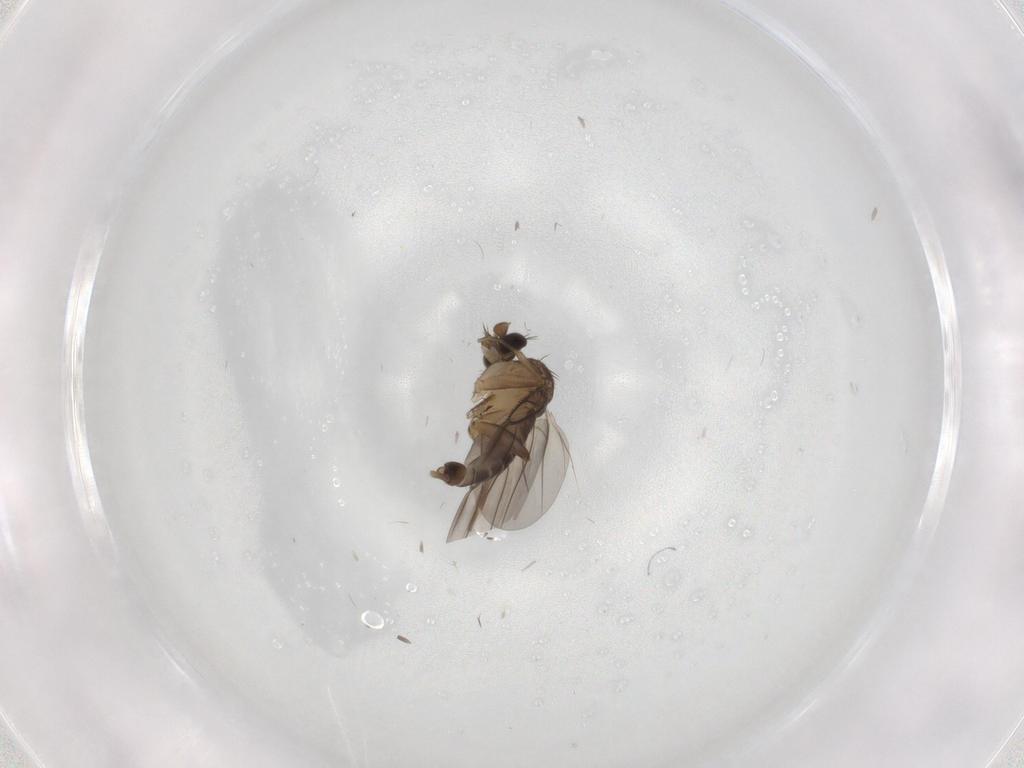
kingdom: Animalia
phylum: Arthropoda
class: Insecta
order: Diptera
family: Phoridae
